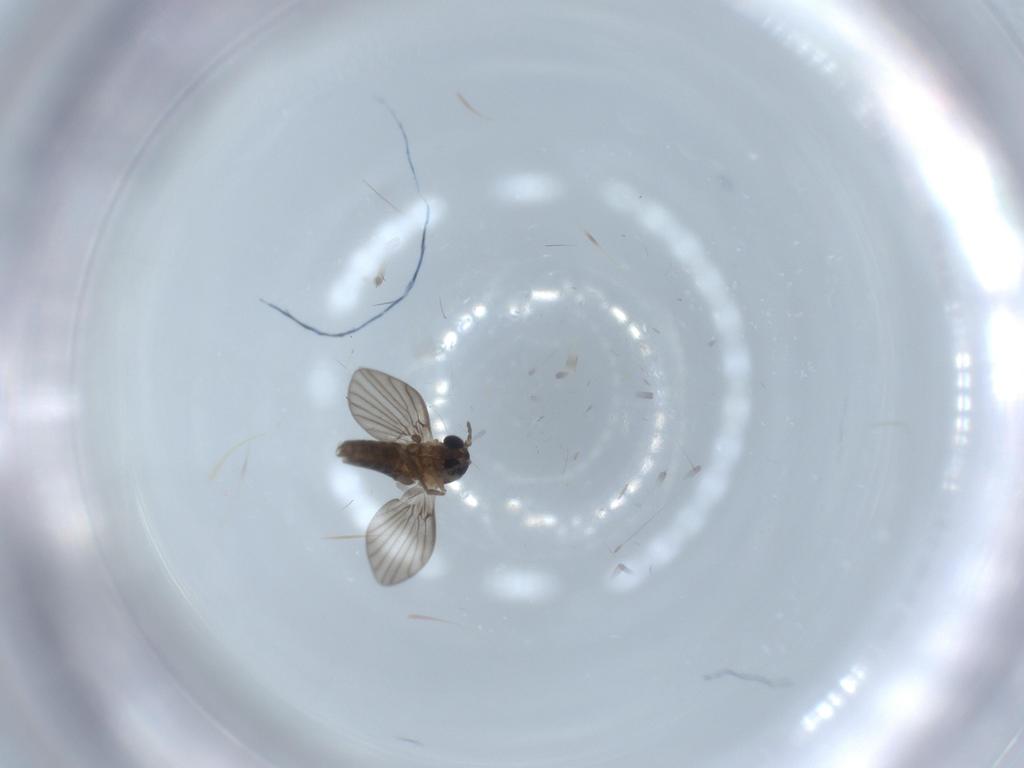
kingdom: Animalia
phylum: Arthropoda
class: Insecta
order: Diptera
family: Psychodidae
